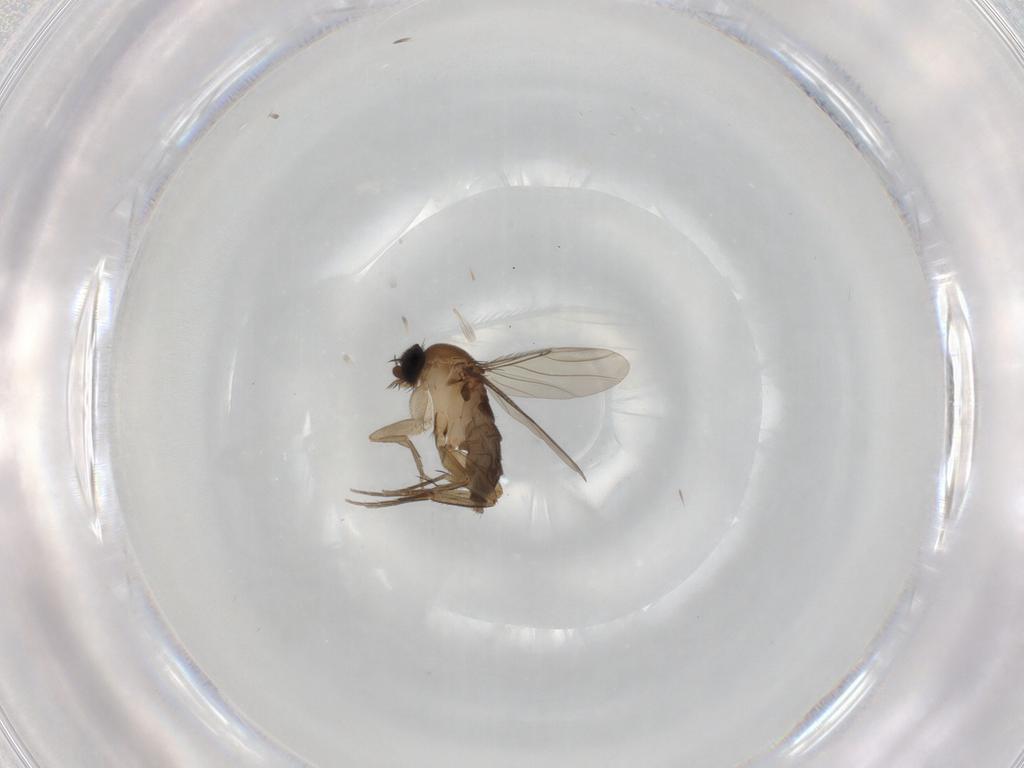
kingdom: Animalia
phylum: Arthropoda
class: Insecta
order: Diptera
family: Phoridae
